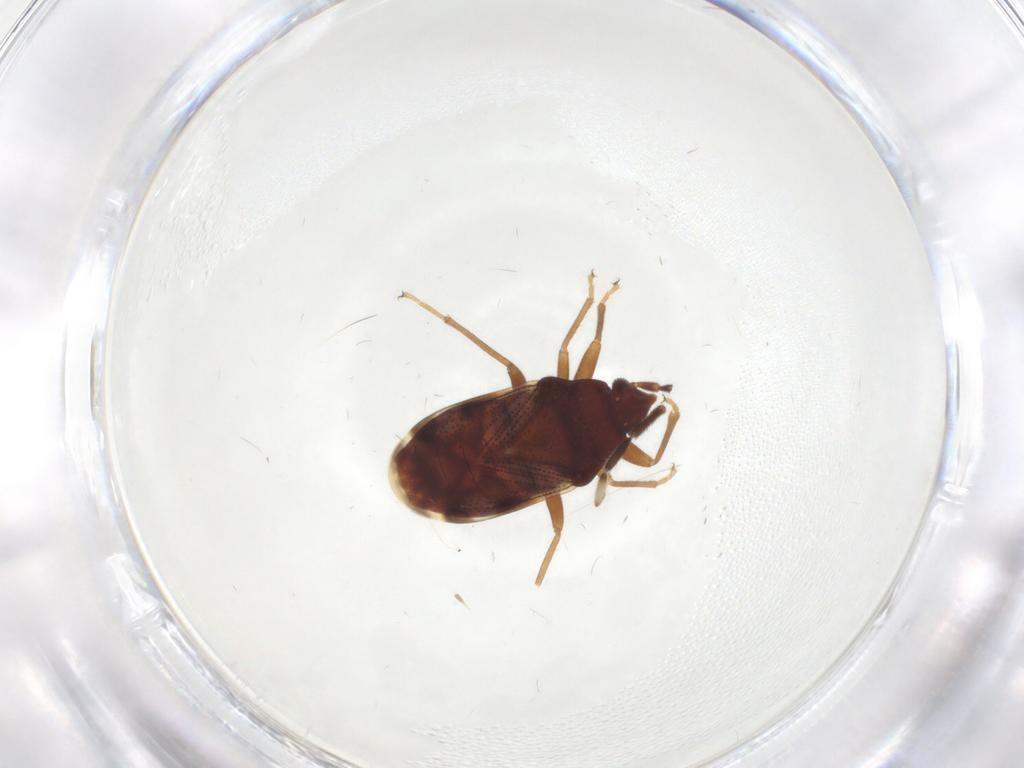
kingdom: Animalia
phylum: Arthropoda
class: Insecta
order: Hemiptera
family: Rhyparochromidae
